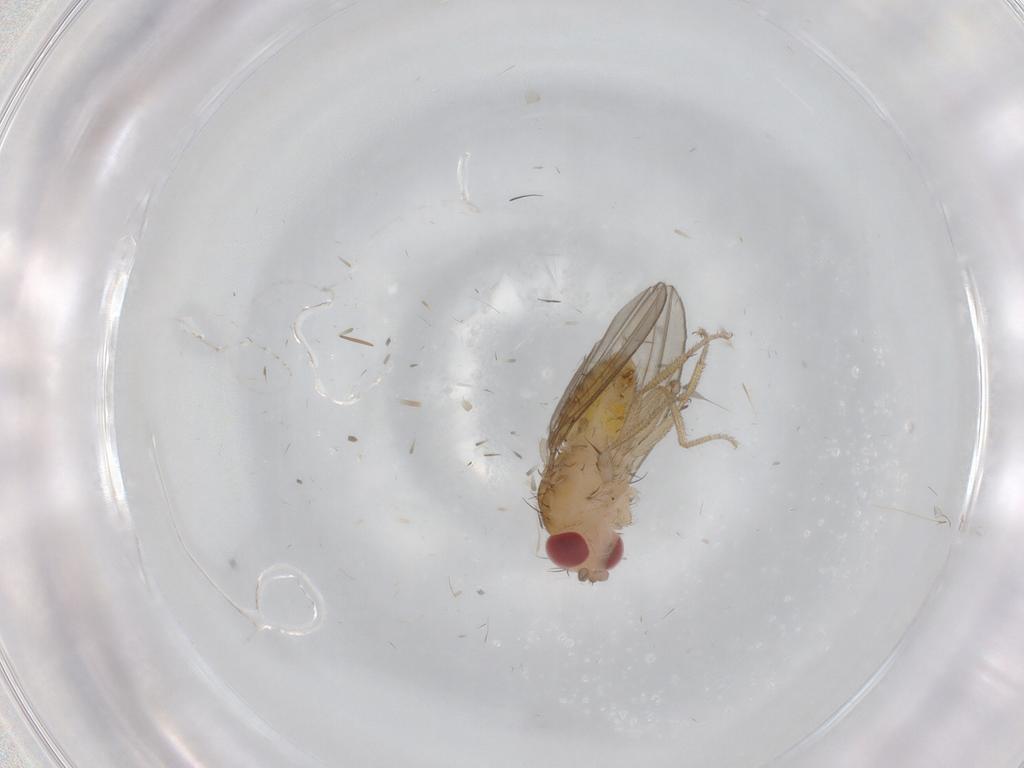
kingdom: Animalia
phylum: Arthropoda
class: Insecta
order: Diptera
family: Drosophilidae
